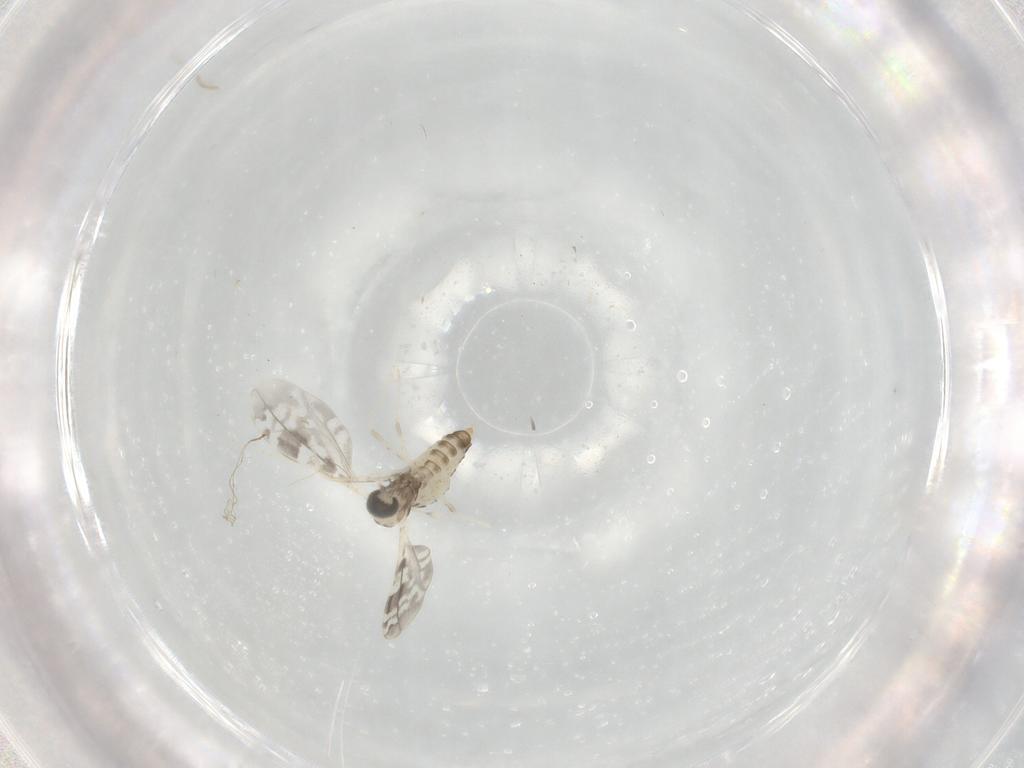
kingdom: Animalia
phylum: Arthropoda
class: Insecta
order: Diptera
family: Cecidomyiidae
